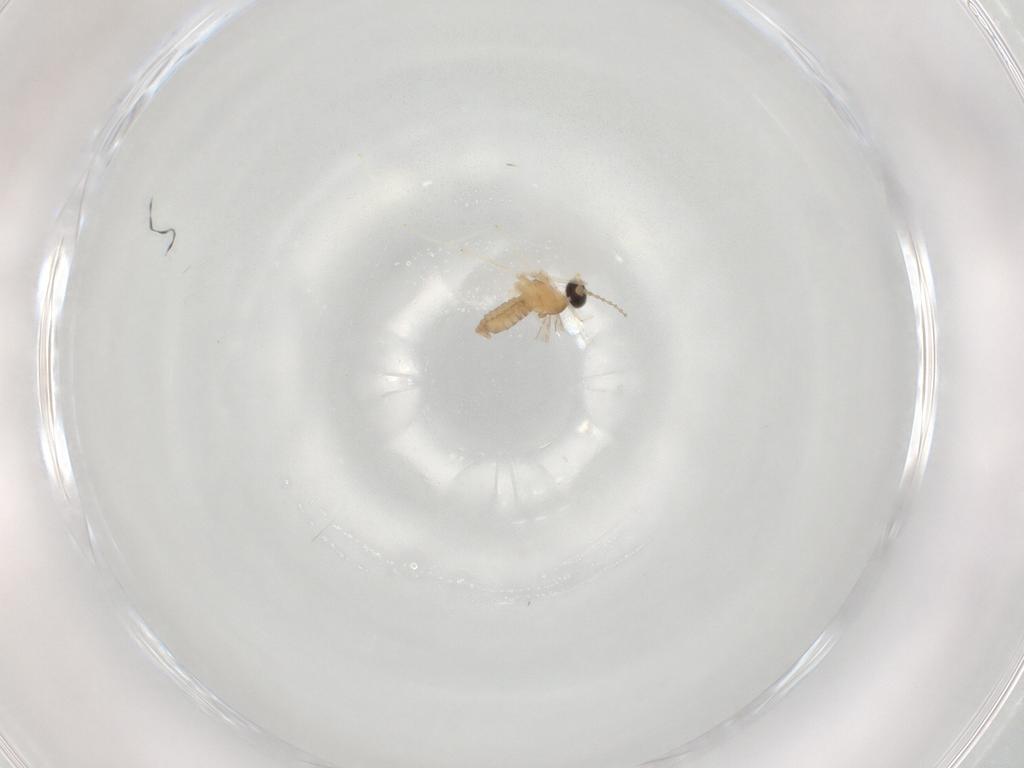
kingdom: Animalia
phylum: Arthropoda
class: Insecta
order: Diptera
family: Cecidomyiidae
